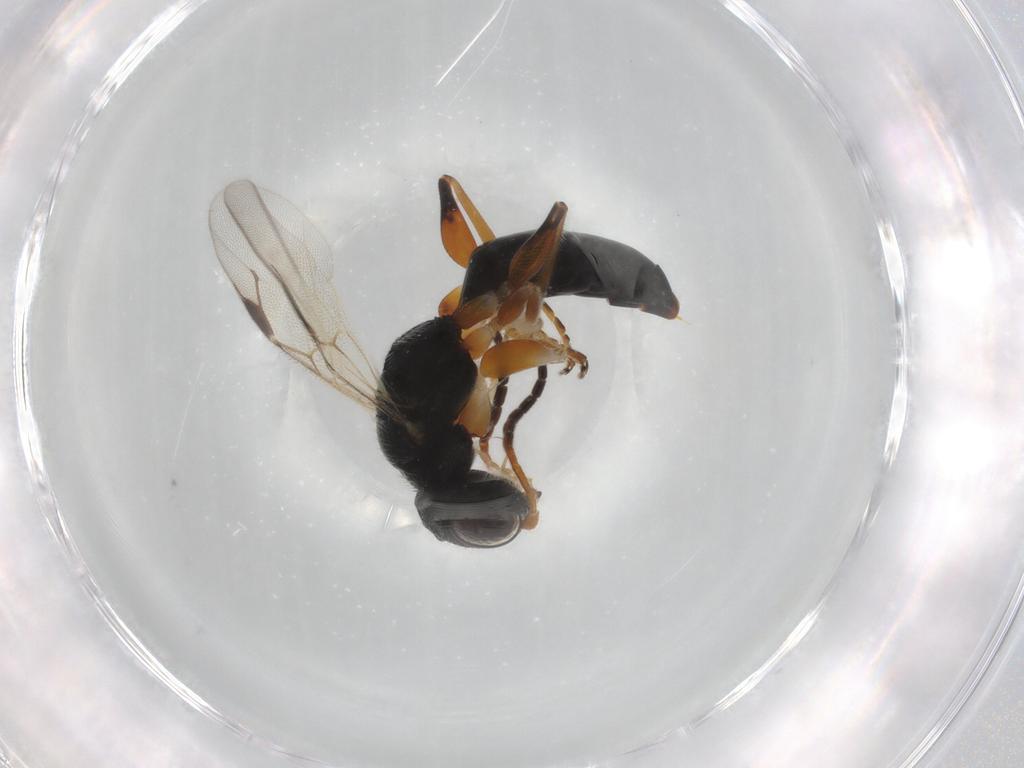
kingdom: Animalia
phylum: Arthropoda
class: Insecta
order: Hymenoptera
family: Dryinidae
